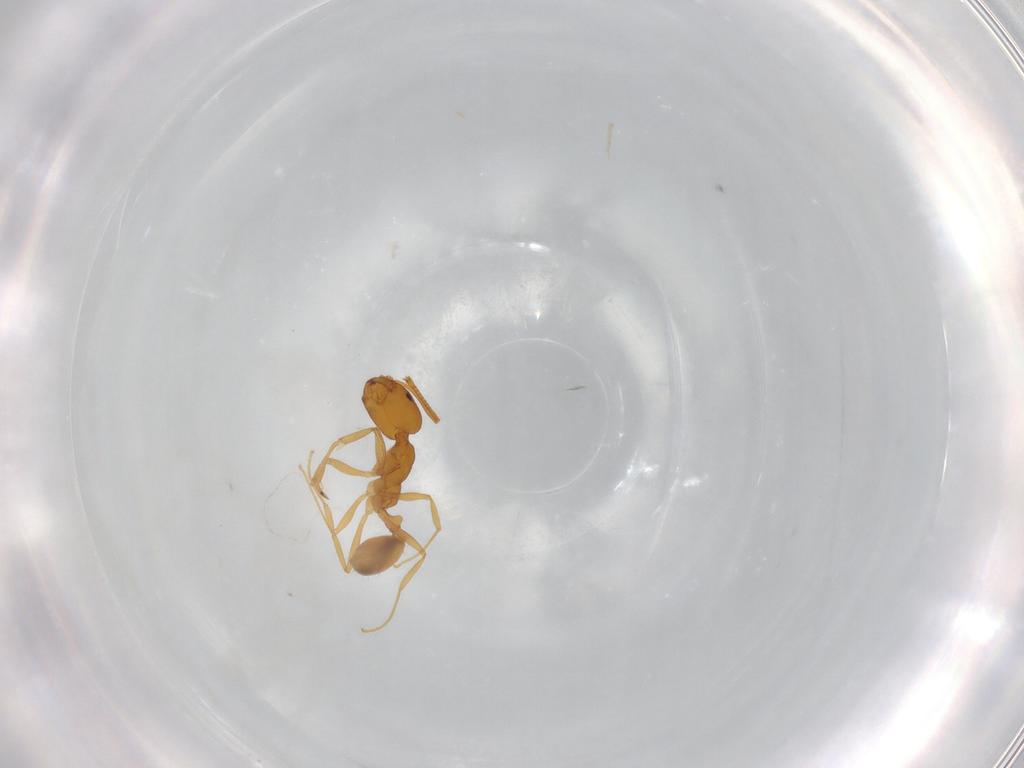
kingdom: Animalia
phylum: Arthropoda
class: Insecta
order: Hymenoptera
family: Formicidae
